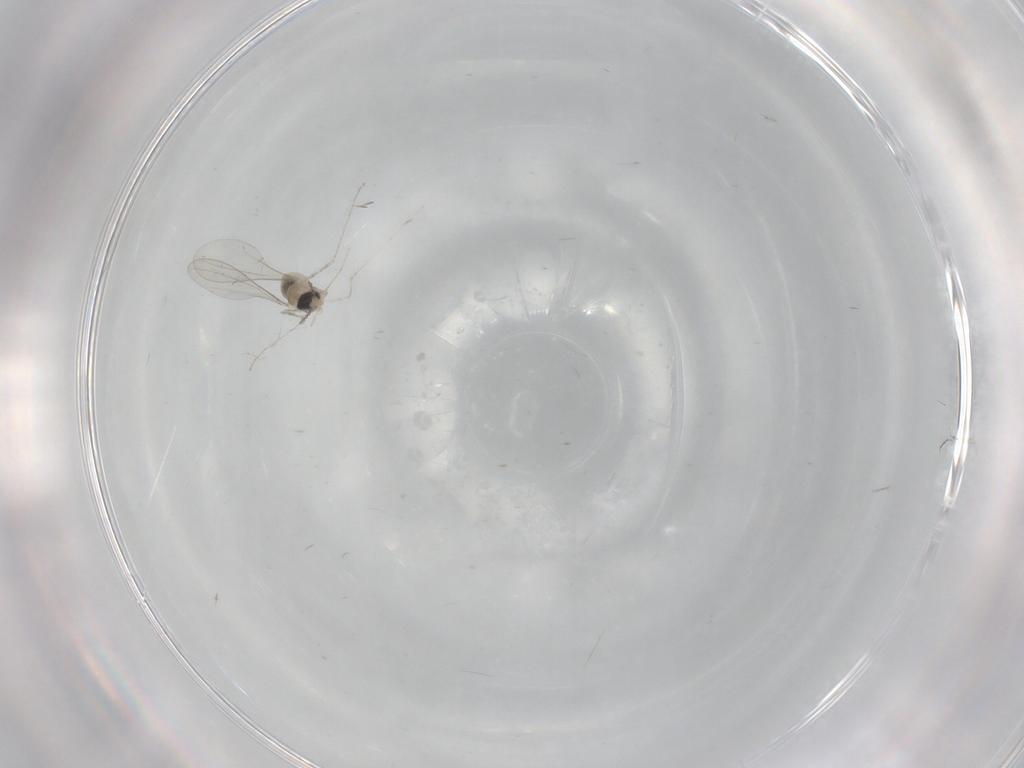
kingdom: Animalia
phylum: Arthropoda
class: Insecta
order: Diptera
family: Cecidomyiidae
